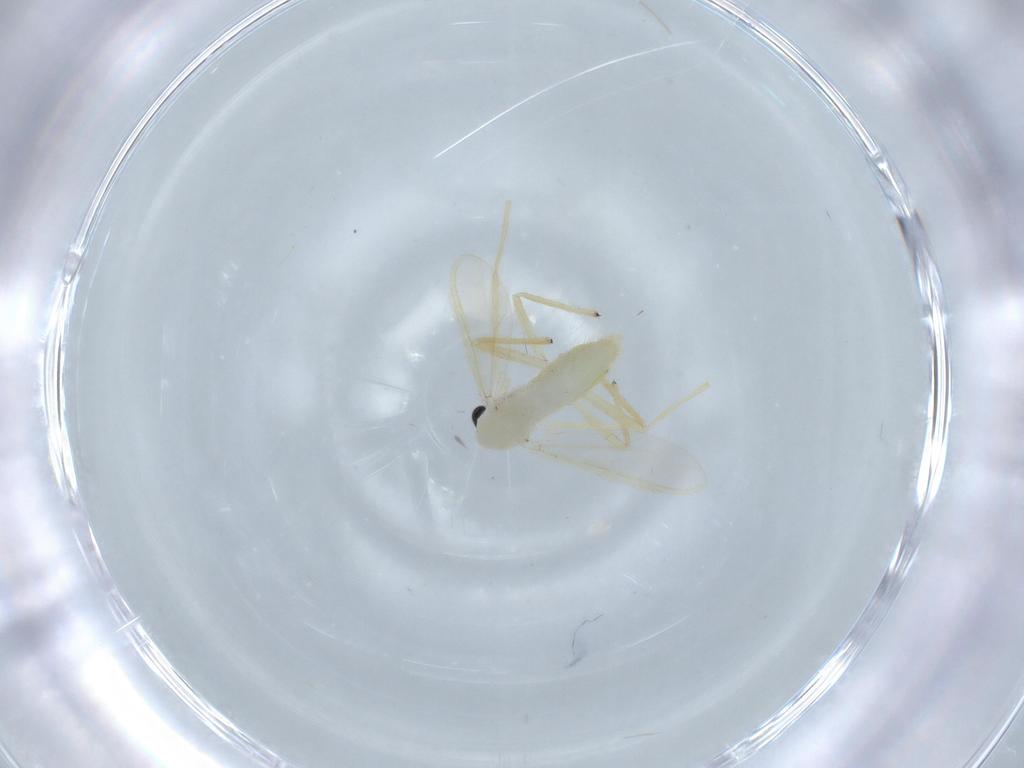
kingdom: Animalia
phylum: Arthropoda
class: Insecta
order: Diptera
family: Chironomidae
